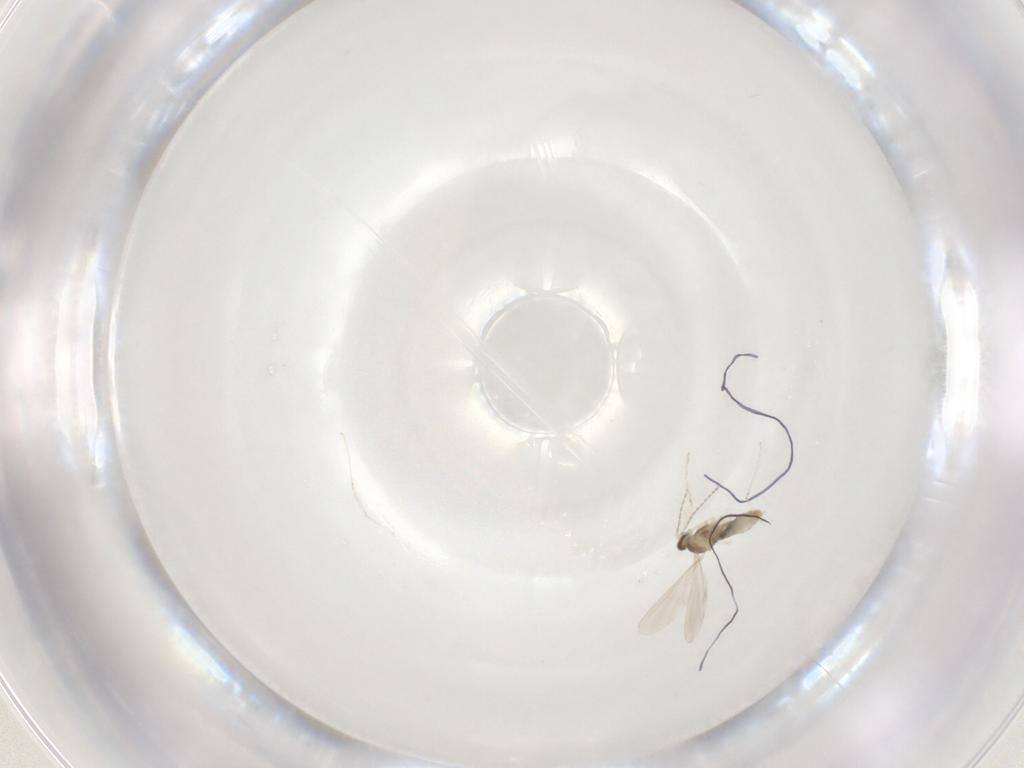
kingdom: Animalia
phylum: Arthropoda
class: Insecta
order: Diptera
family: Cecidomyiidae
